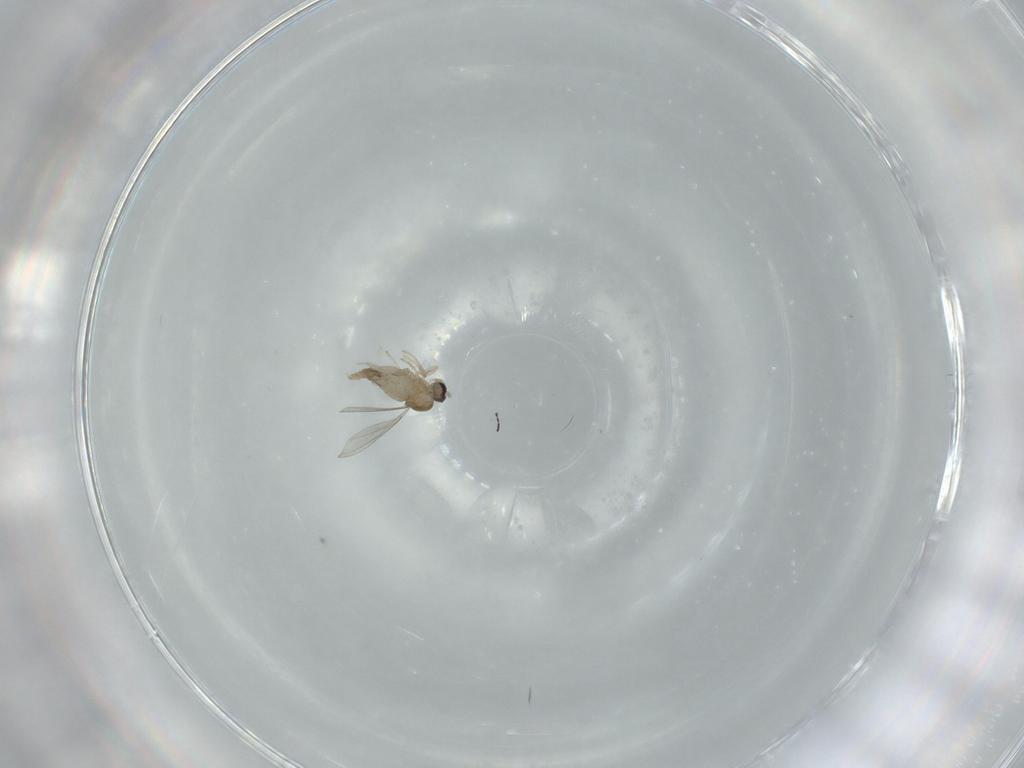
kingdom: Animalia
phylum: Arthropoda
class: Insecta
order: Diptera
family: Cecidomyiidae
